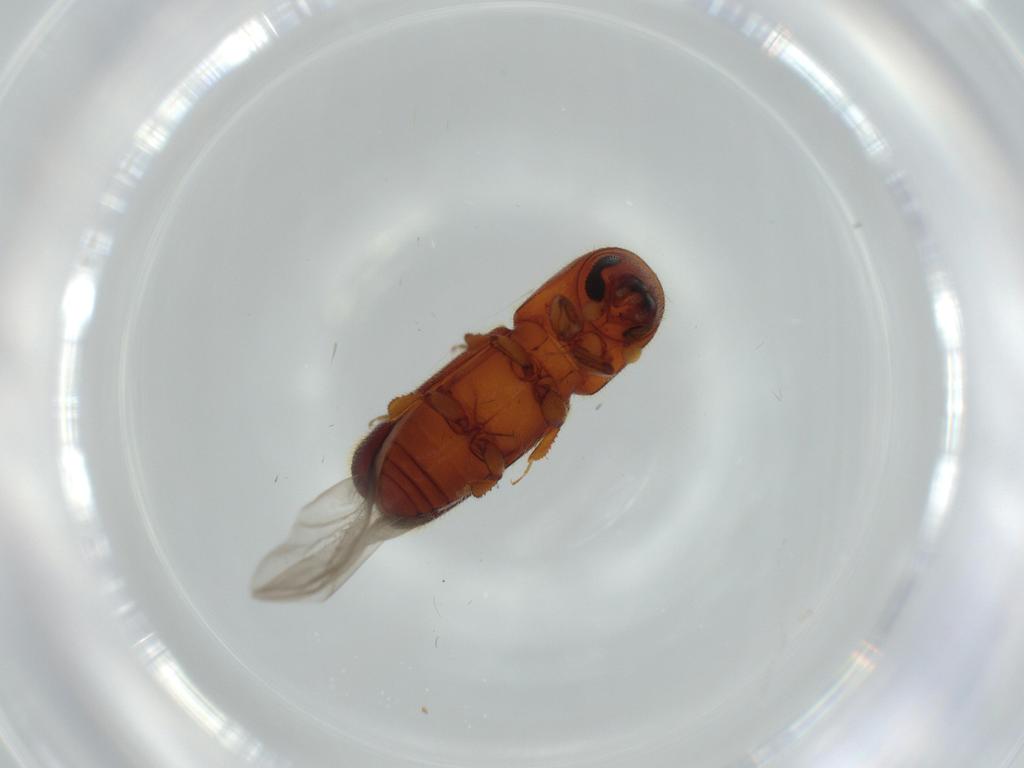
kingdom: Animalia
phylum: Arthropoda
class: Insecta
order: Coleoptera
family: Curculionidae
